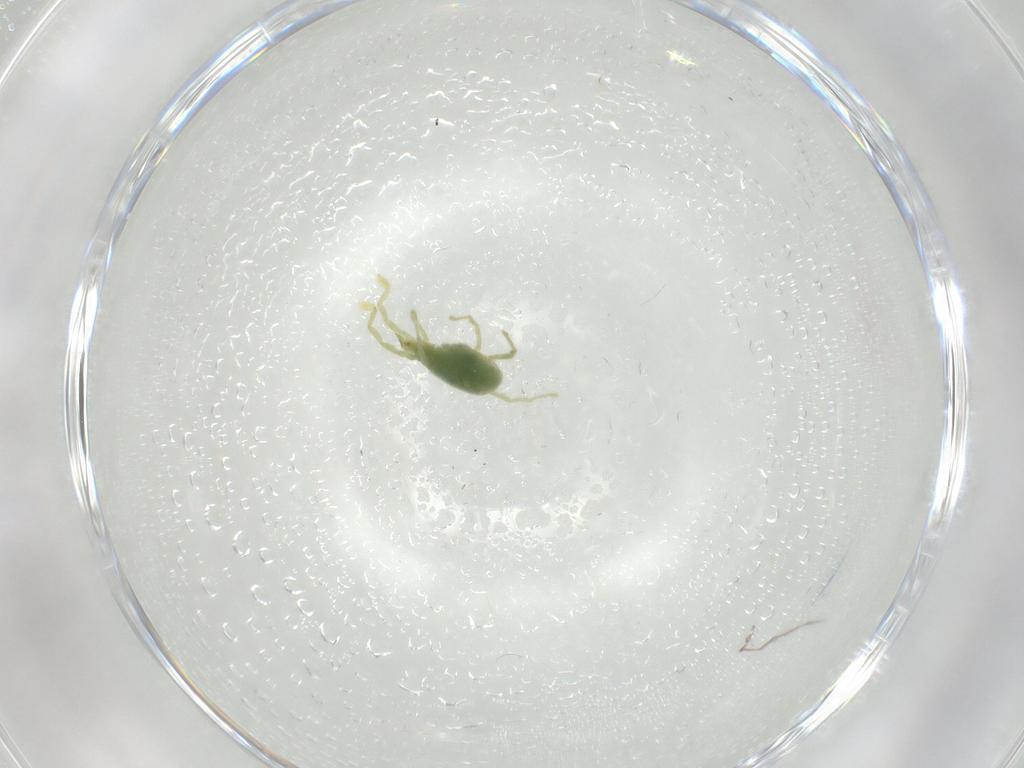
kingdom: Animalia
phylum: Arthropoda
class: Arachnida
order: Trombidiformes
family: Erythraeidae
